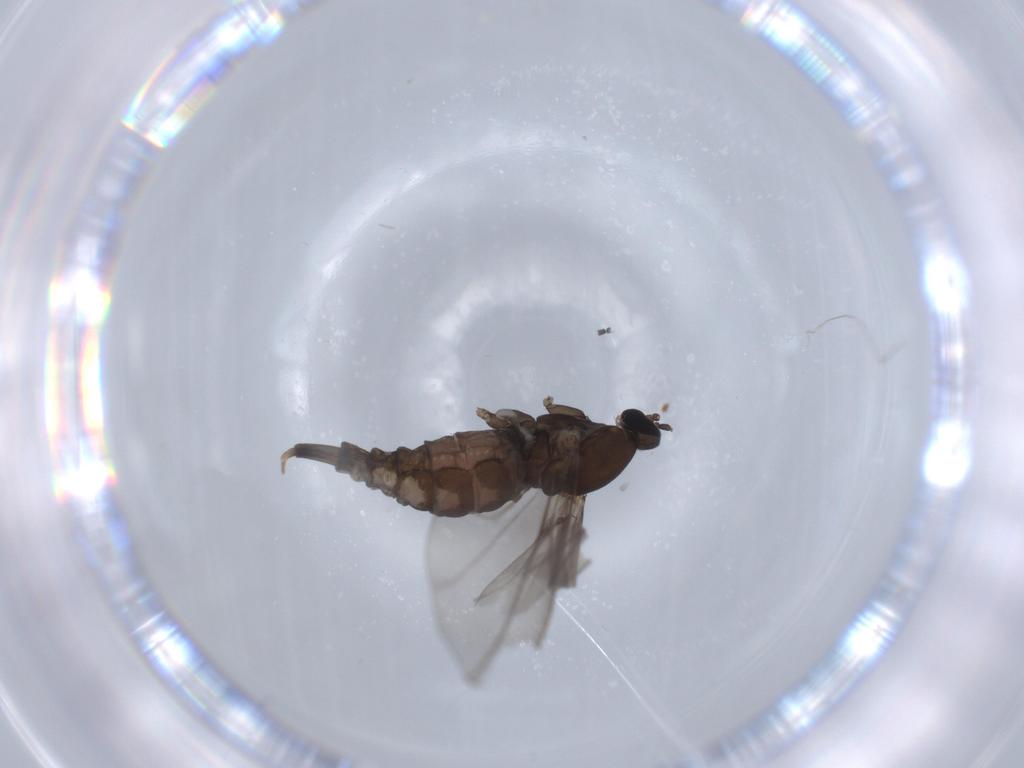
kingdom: Animalia
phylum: Arthropoda
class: Insecta
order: Diptera
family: Cecidomyiidae
